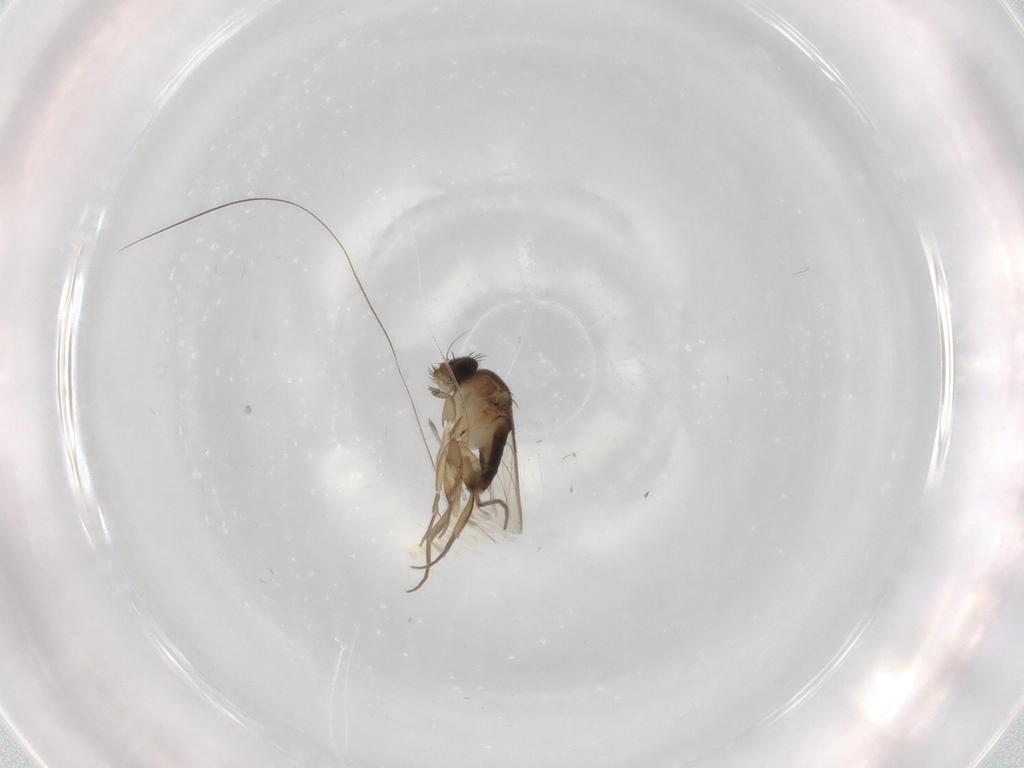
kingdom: Animalia
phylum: Arthropoda
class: Insecta
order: Diptera
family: Phoridae
